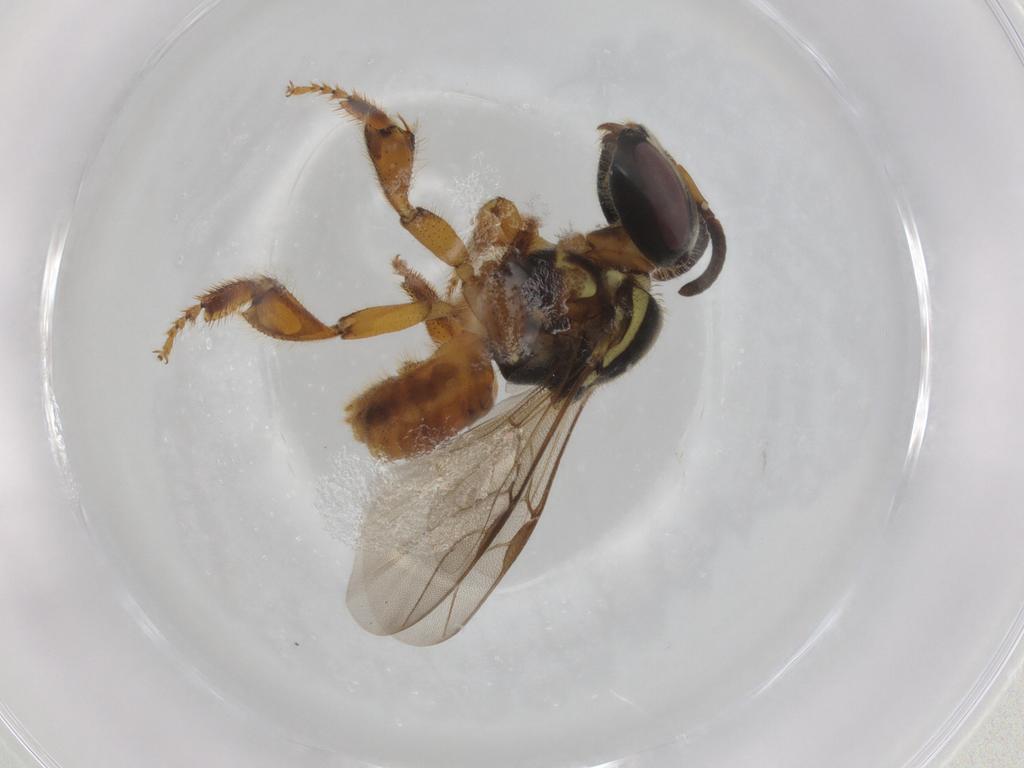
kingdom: Animalia
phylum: Arthropoda
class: Insecta
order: Hymenoptera
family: Apidae
